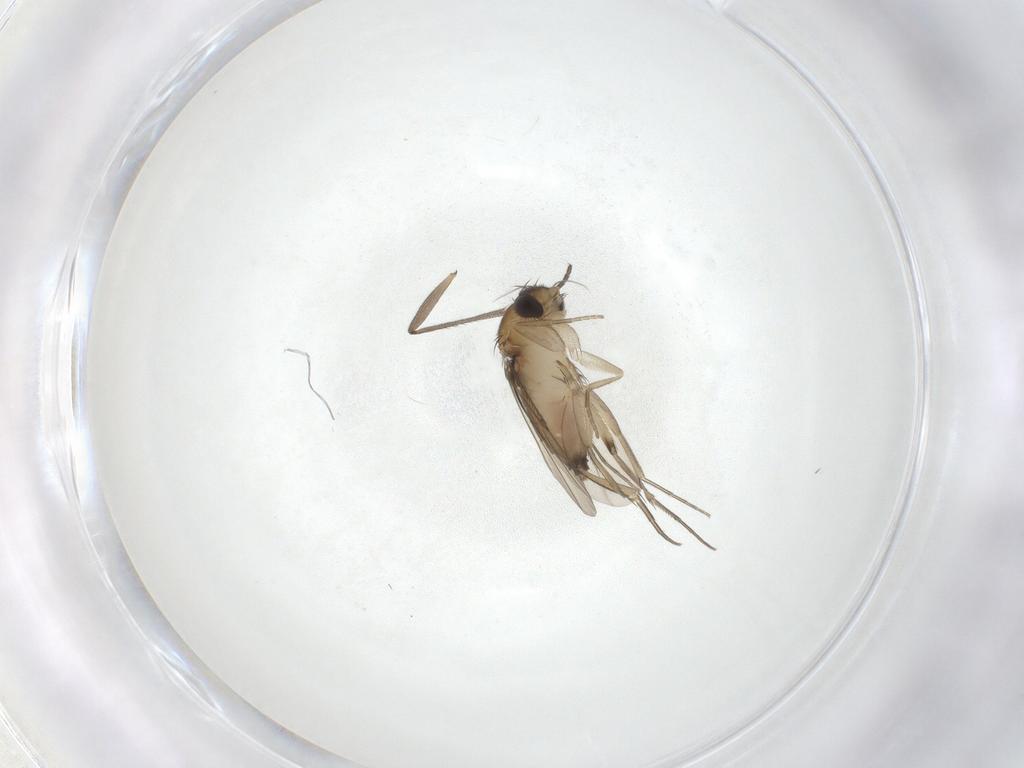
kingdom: Animalia
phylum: Arthropoda
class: Insecta
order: Diptera
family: Phoridae
